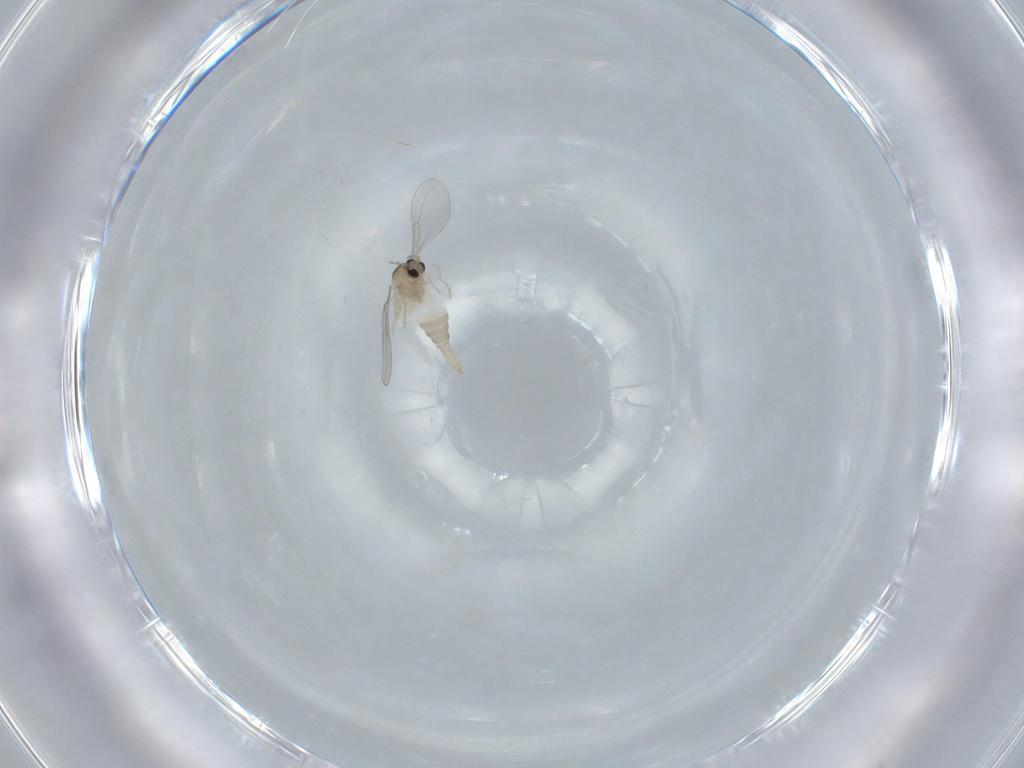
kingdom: Animalia
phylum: Arthropoda
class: Insecta
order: Diptera
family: Cecidomyiidae
